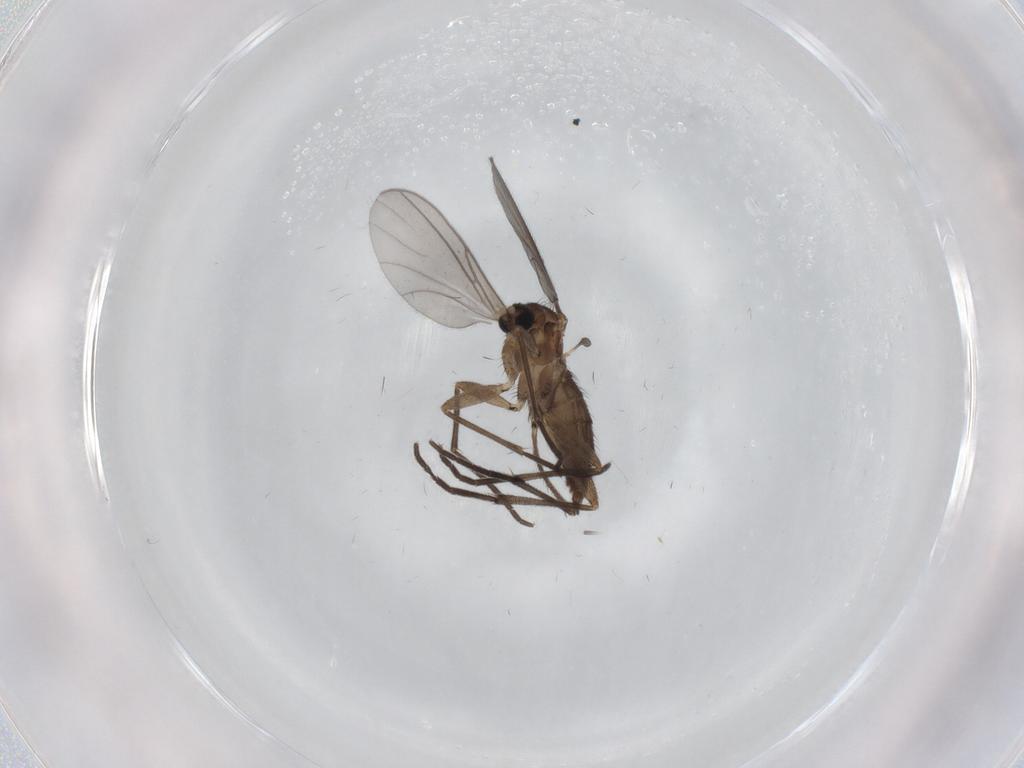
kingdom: Animalia
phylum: Arthropoda
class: Insecta
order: Diptera
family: Cecidomyiidae
